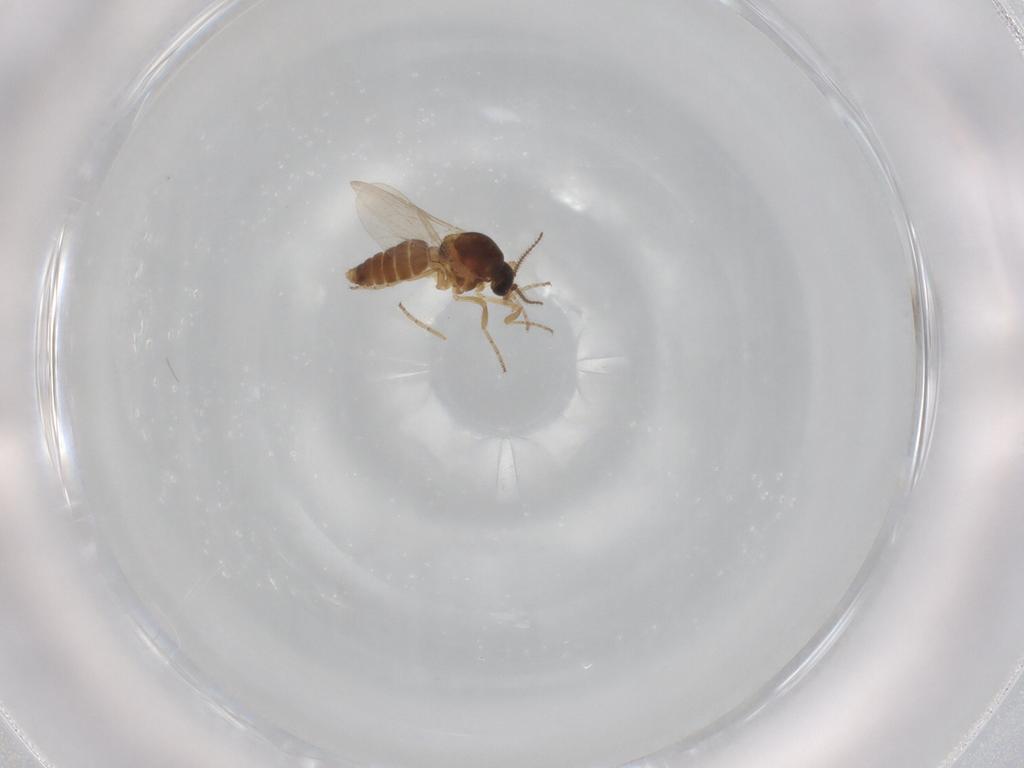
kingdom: Animalia
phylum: Arthropoda
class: Insecta
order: Diptera
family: Ceratopogonidae
